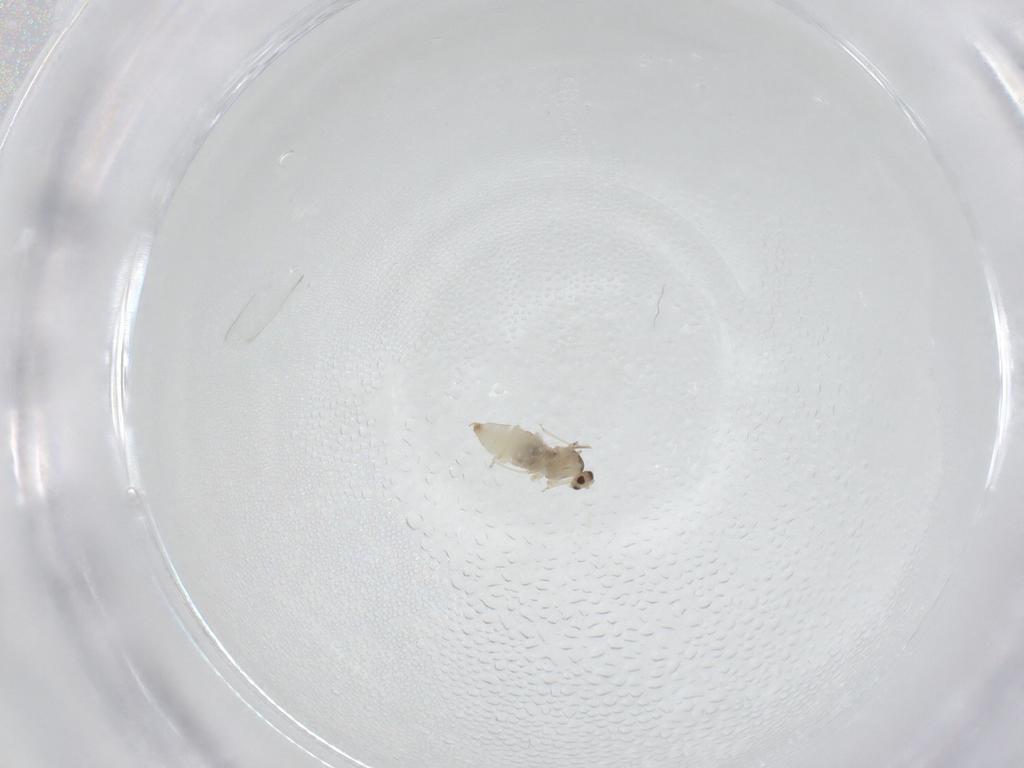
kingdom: Animalia
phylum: Arthropoda
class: Insecta
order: Diptera
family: Cecidomyiidae
